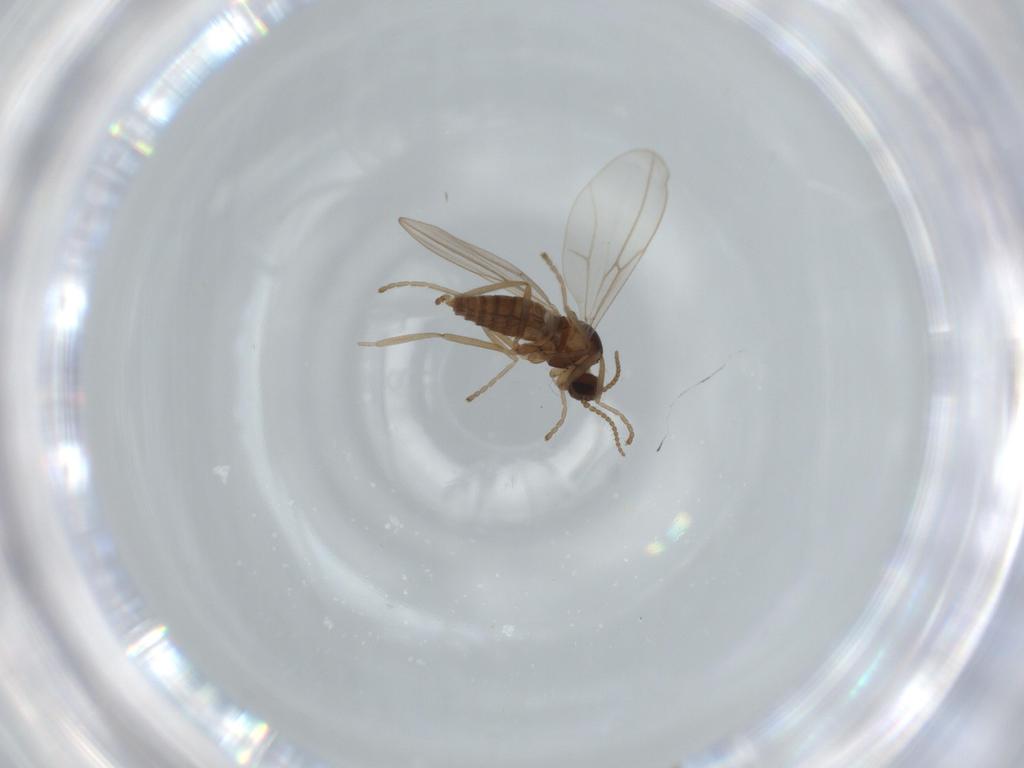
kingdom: Animalia
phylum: Arthropoda
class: Insecta
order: Diptera
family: Cecidomyiidae
